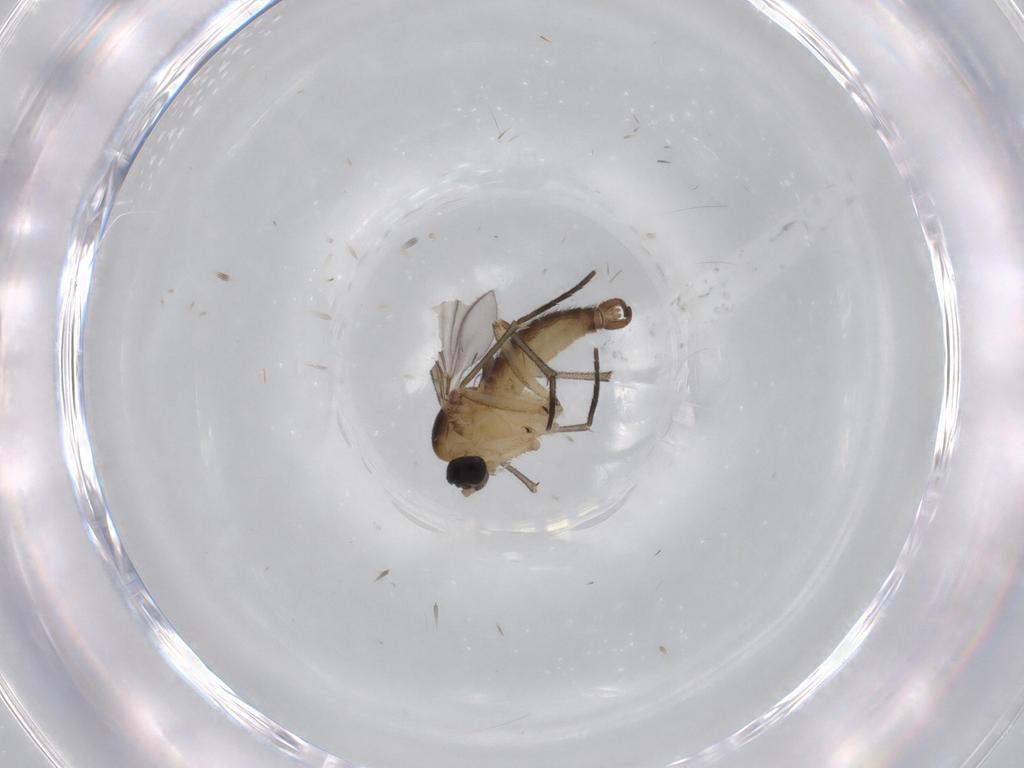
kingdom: Animalia
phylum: Arthropoda
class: Insecta
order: Diptera
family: Sciaridae
